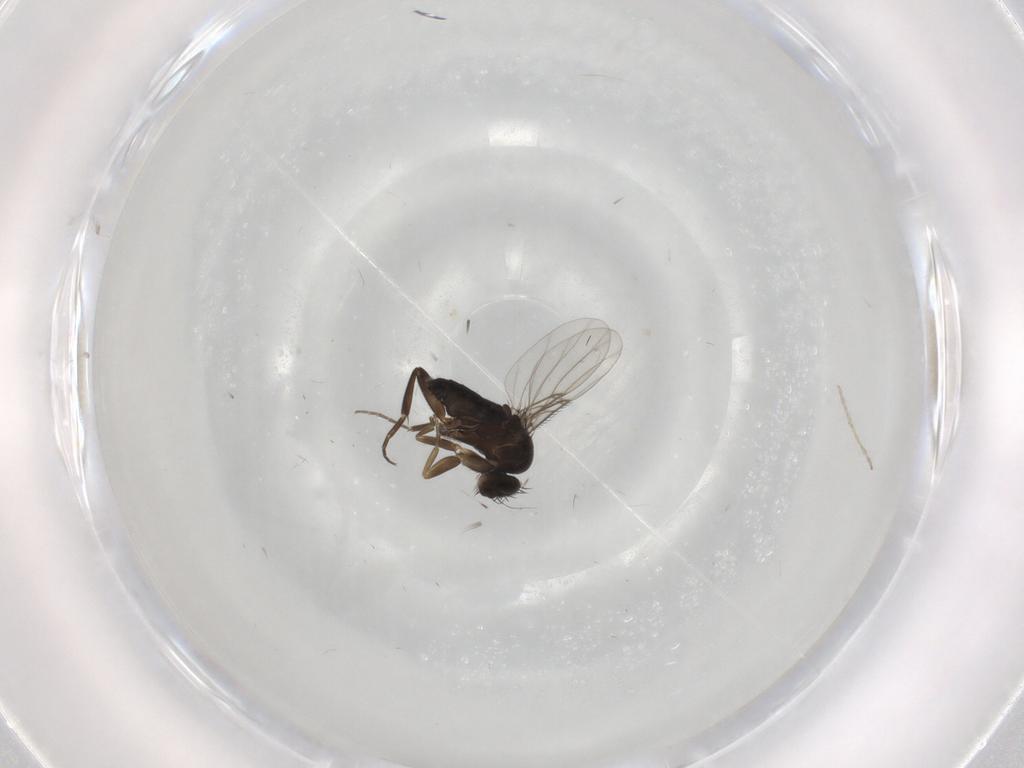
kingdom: Animalia
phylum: Arthropoda
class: Insecta
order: Diptera
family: Phoridae
